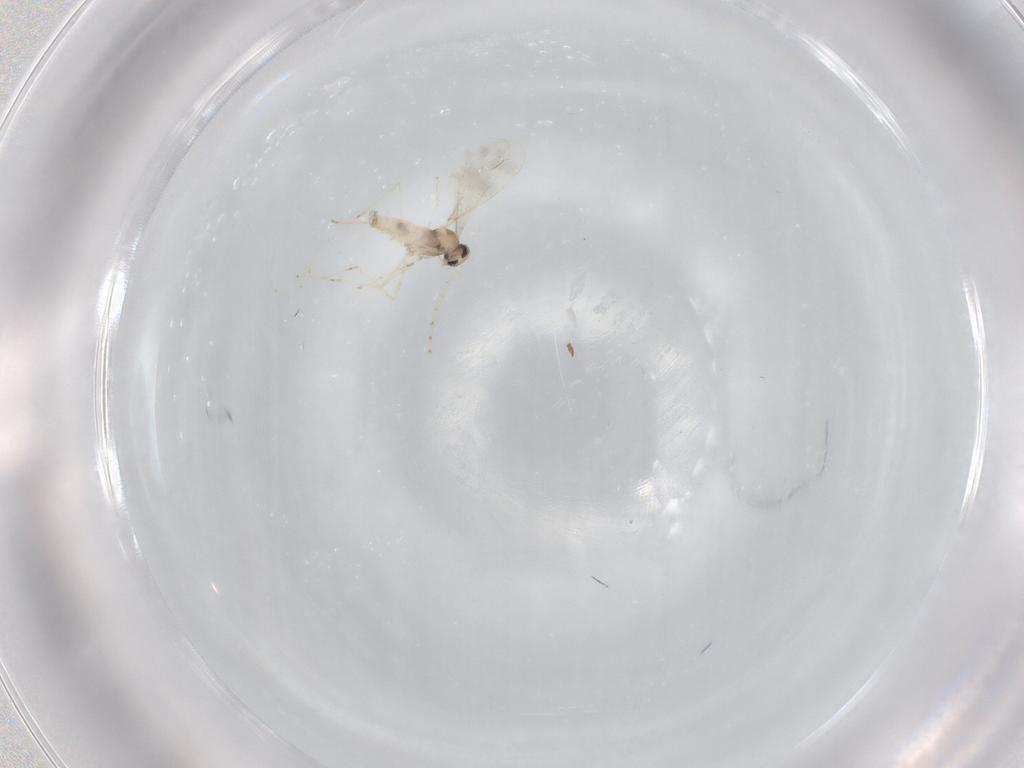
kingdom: Animalia
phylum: Arthropoda
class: Insecta
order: Diptera
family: Cecidomyiidae
